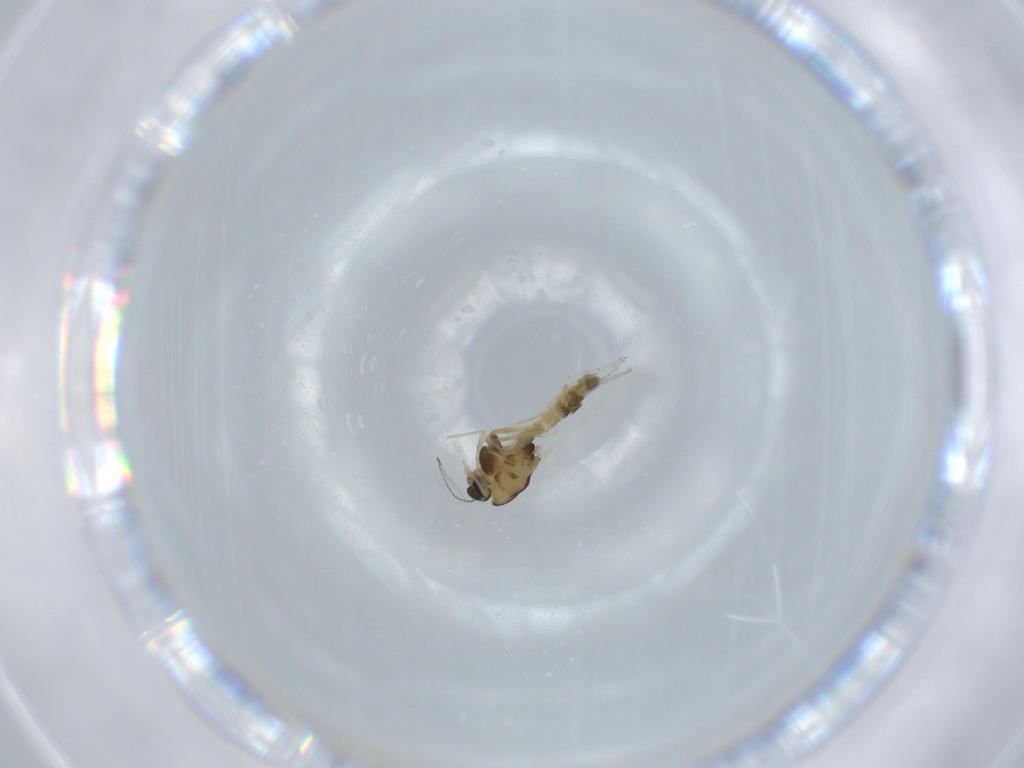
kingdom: Animalia
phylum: Arthropoda
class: Insecta
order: Diptera
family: Chironomidae
